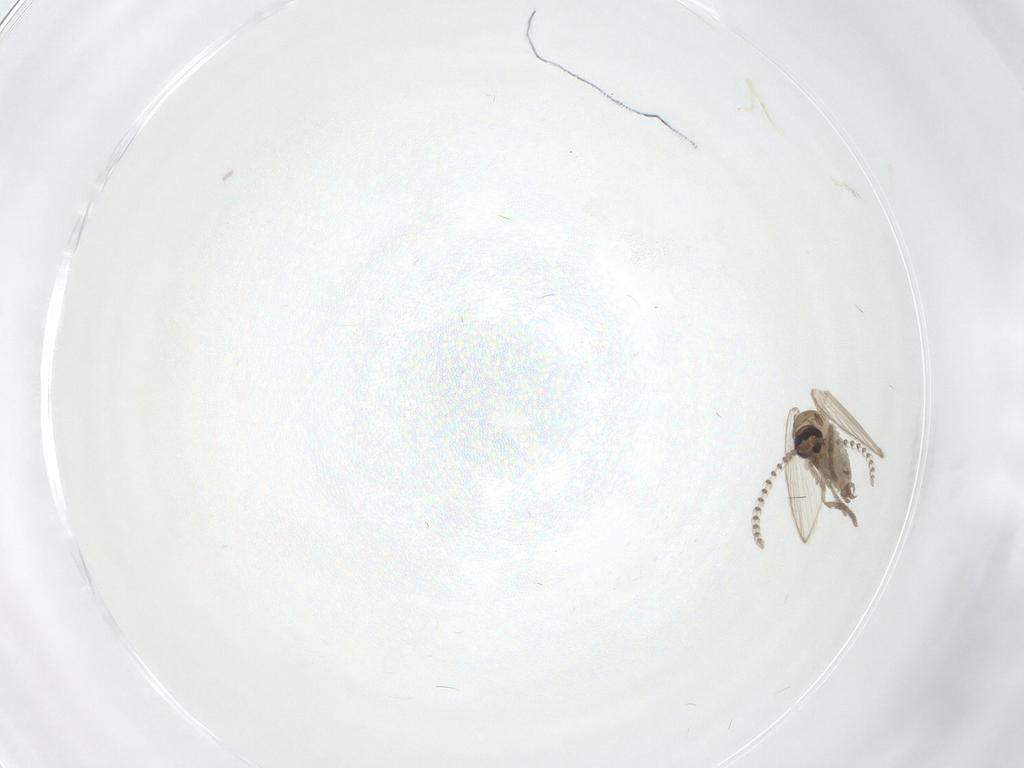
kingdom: Animalia
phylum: Arthropoda
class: Insecta
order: Diptera
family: Psychodidae
